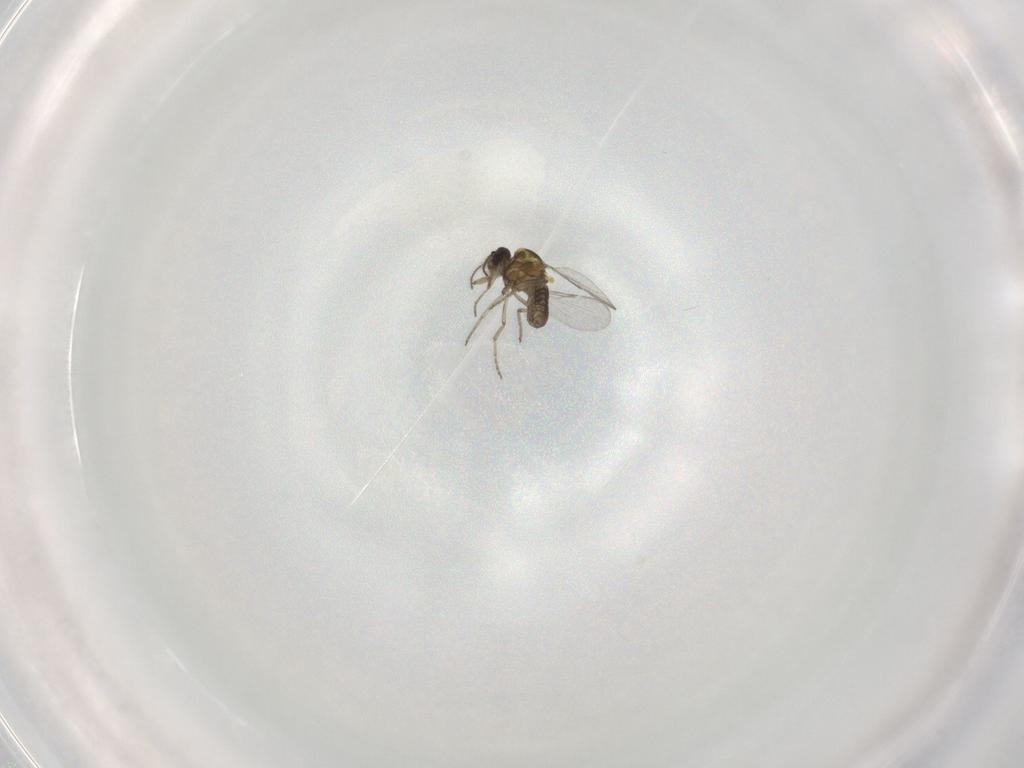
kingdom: Animalia
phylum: Arthropoda
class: Insecta
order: Diptera
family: Ceratopogonidae
